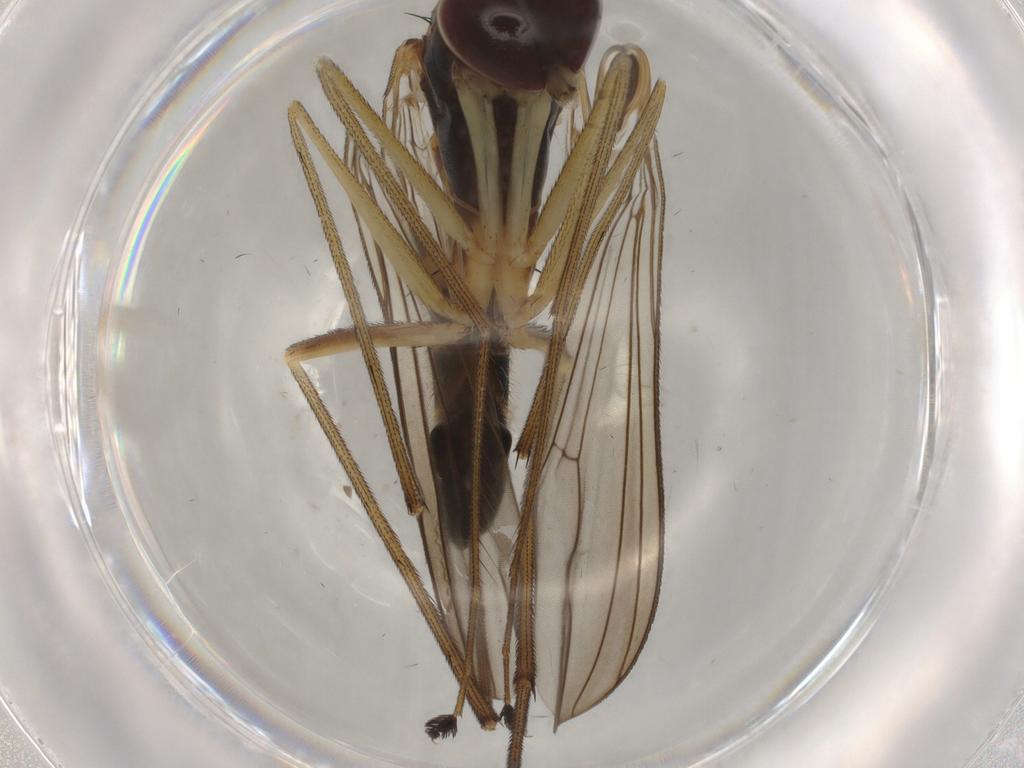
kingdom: Animalia
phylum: Arthropoda
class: Insecta
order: Diptera
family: Dolichopodidae
